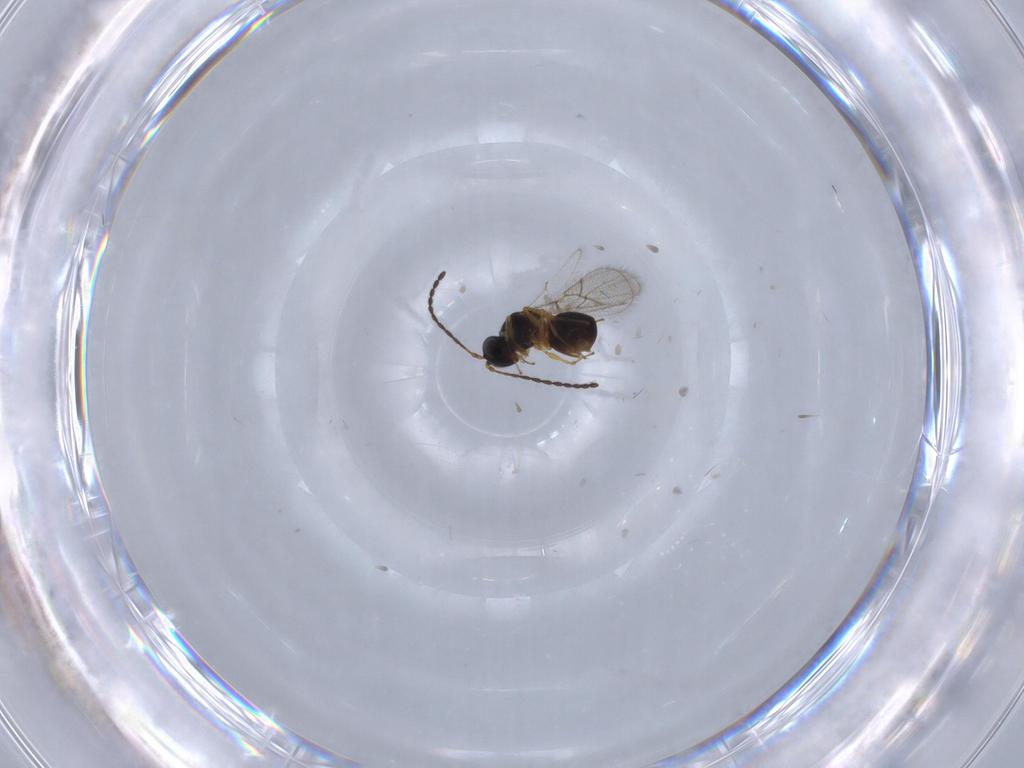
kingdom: Animalia
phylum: Arthropoda
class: Insecta
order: Hymenoptera
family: Figitidae
